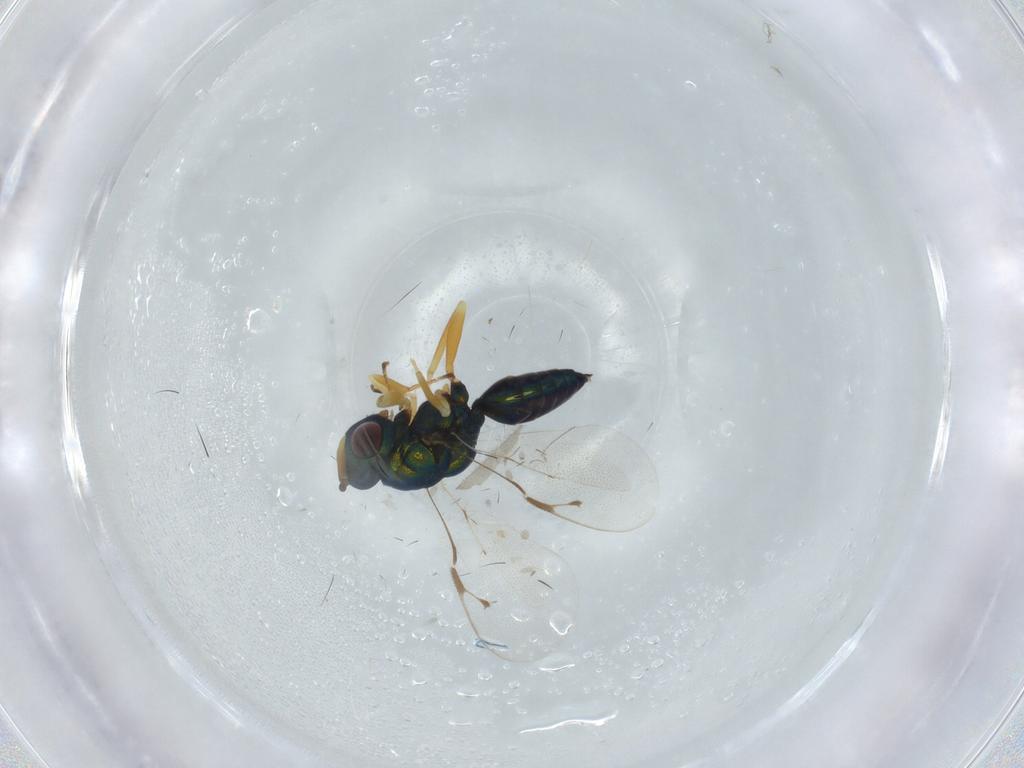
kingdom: Animalia
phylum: Arthropoda
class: Insecta
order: Hymenoptera
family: Pteromalidae
